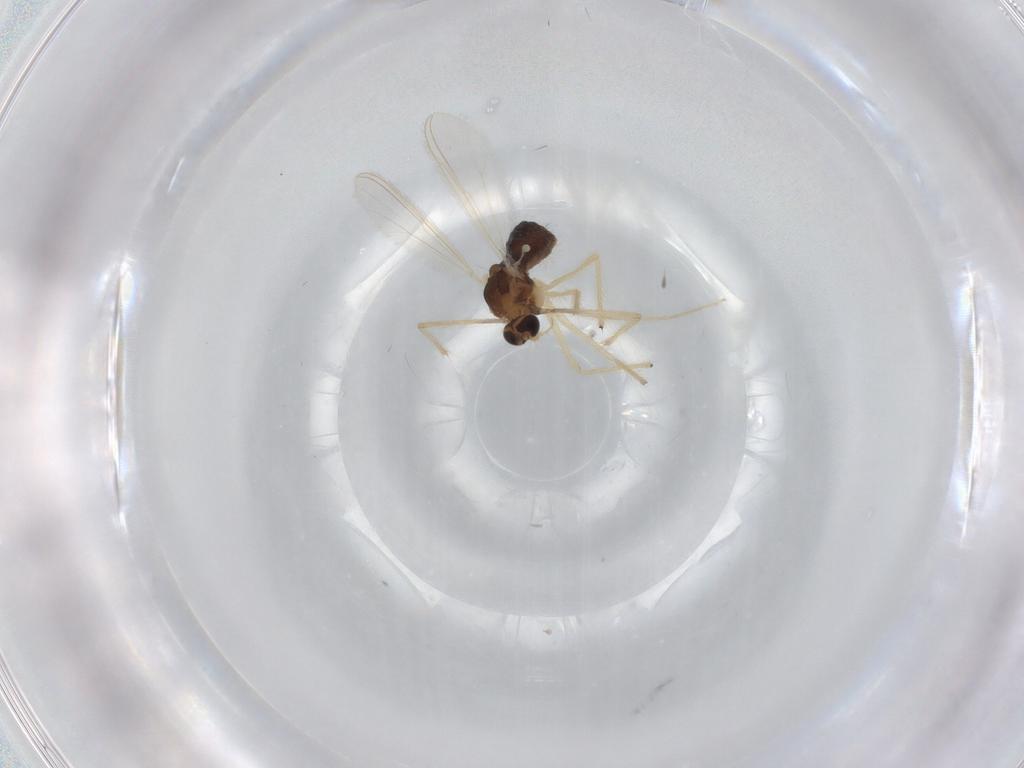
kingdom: Animalia
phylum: Arthropoda
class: Insecta
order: Diptera
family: Chironomidae
